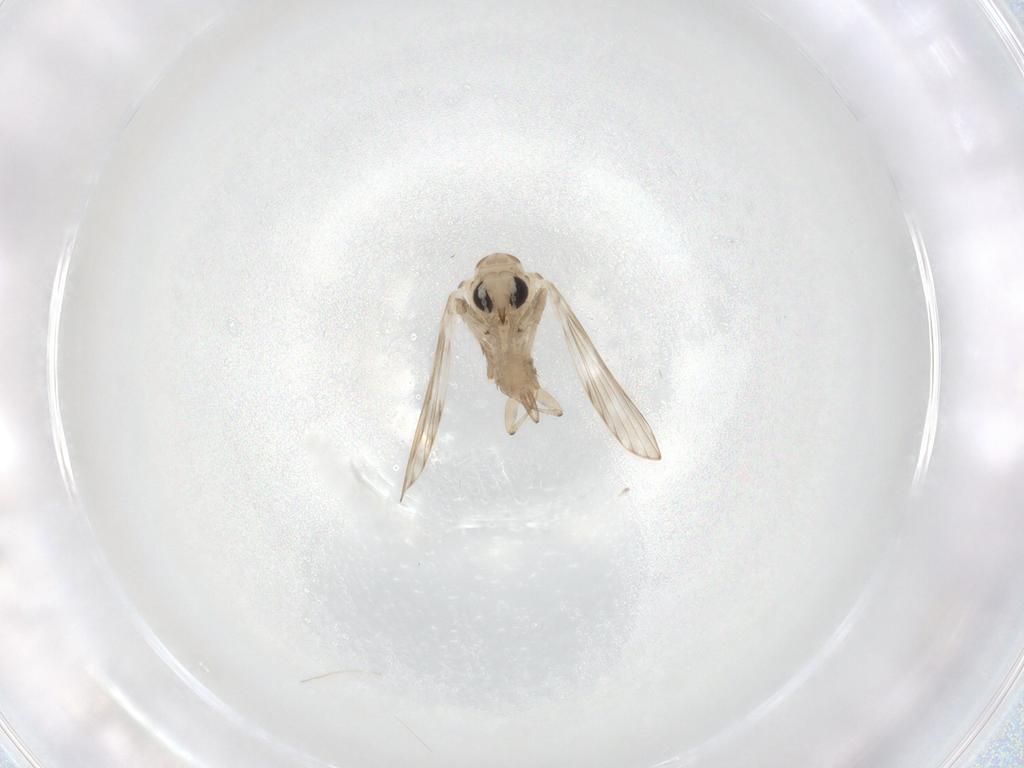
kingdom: Animalia
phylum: Arthropoda
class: Insecta
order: Diptera
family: Psychodidae
